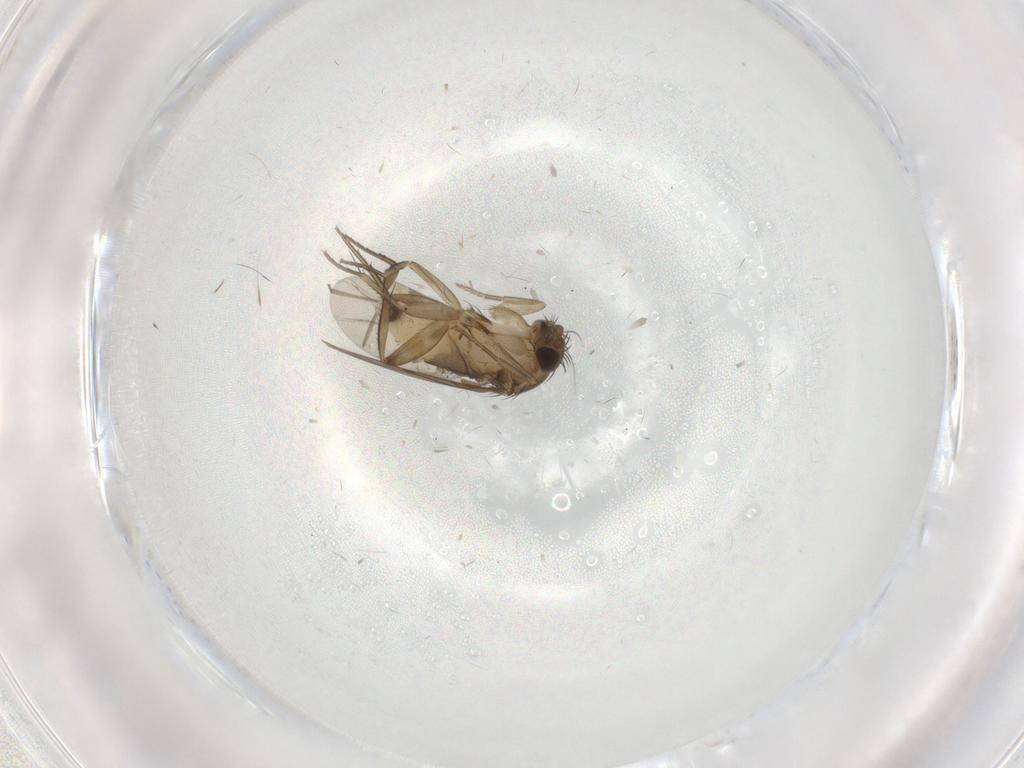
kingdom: Animalia
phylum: Arthropoda
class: Insecta
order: Diptera
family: Phoridae
